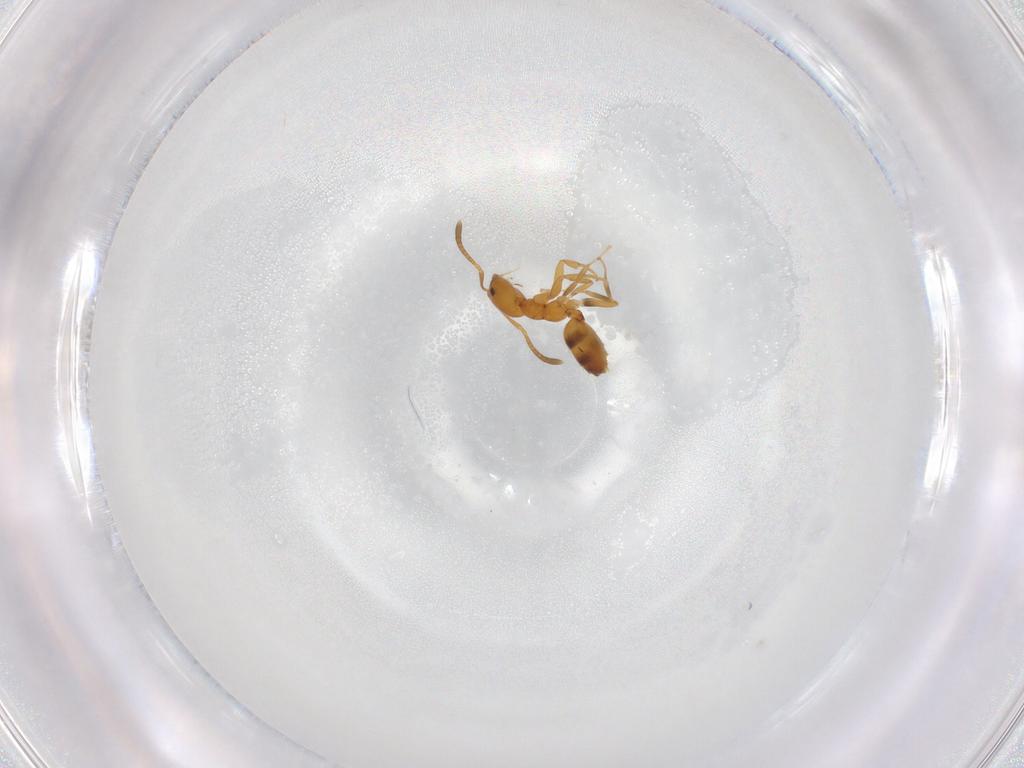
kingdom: Animalia
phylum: Arthropoda
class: Insecta
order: Hymenoptera
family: Formicidae
